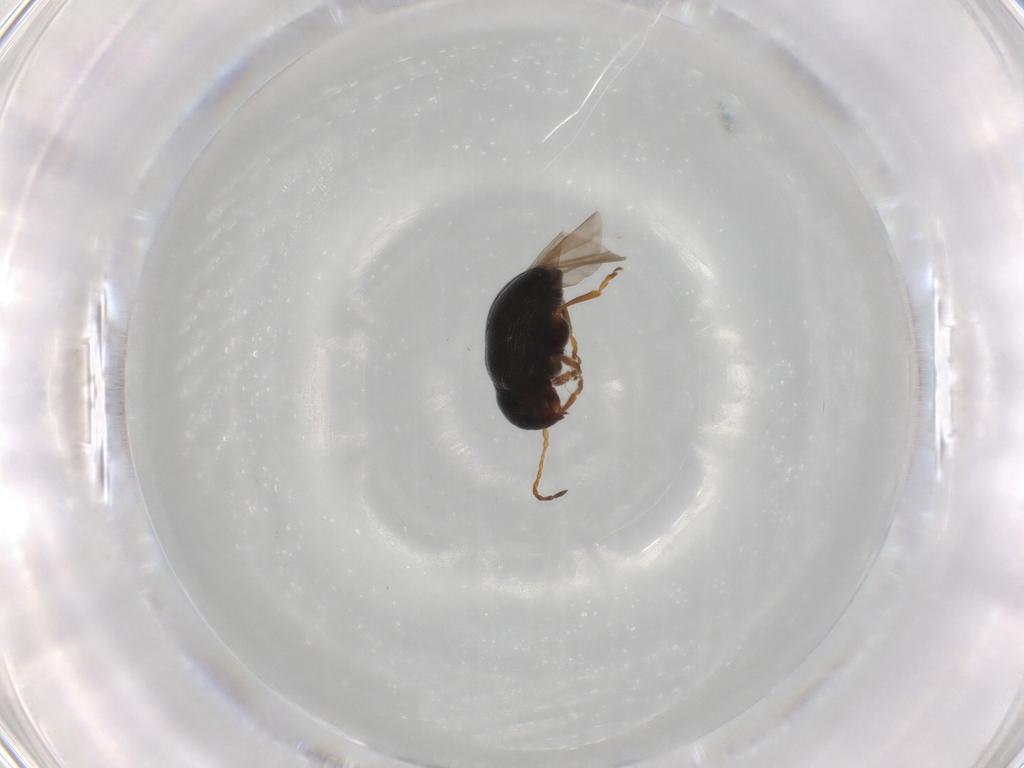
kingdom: Animalia
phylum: Arthropoda
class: Insecta
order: Coleoptera
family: Chrysomelidae
